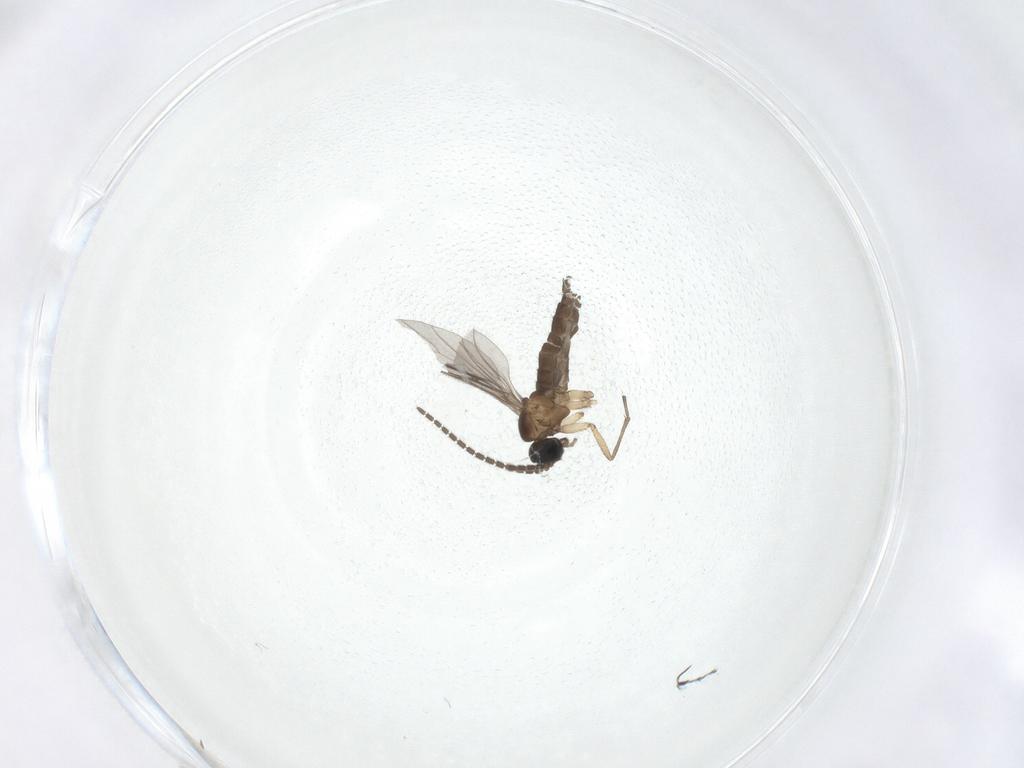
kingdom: Animalia
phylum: Arthropoda
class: Insecta
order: Diptera
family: Sciaridae
